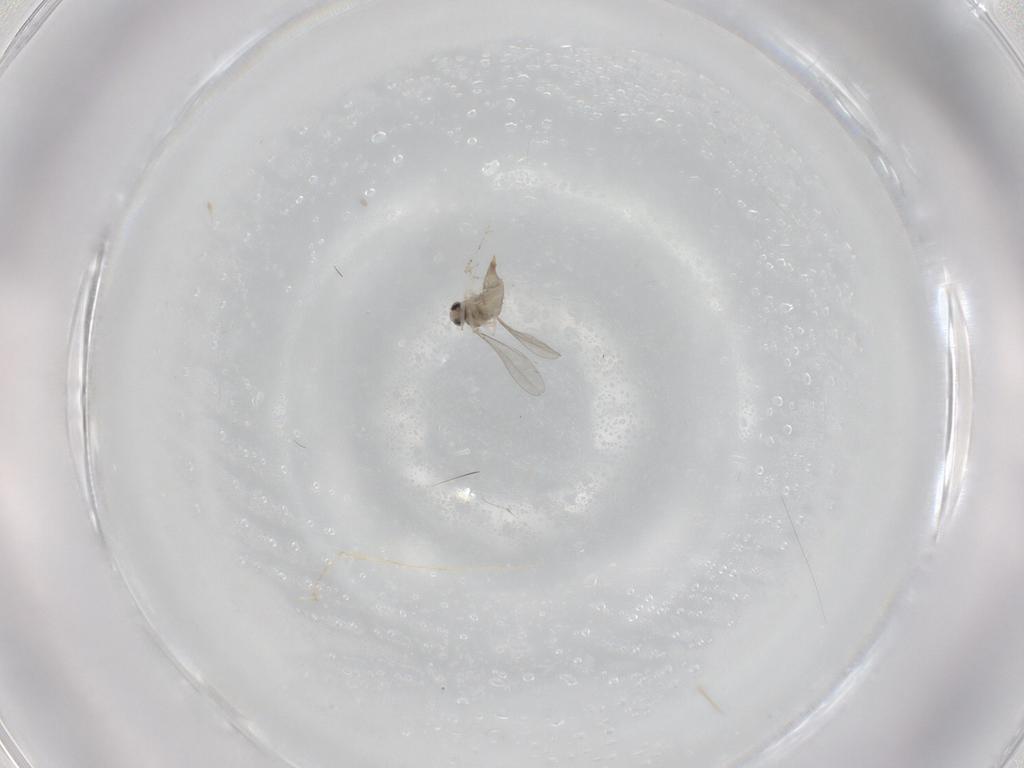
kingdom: Animalia
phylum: Arthropoda
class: Insecta
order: Diptera
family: Cecidomyiidae
